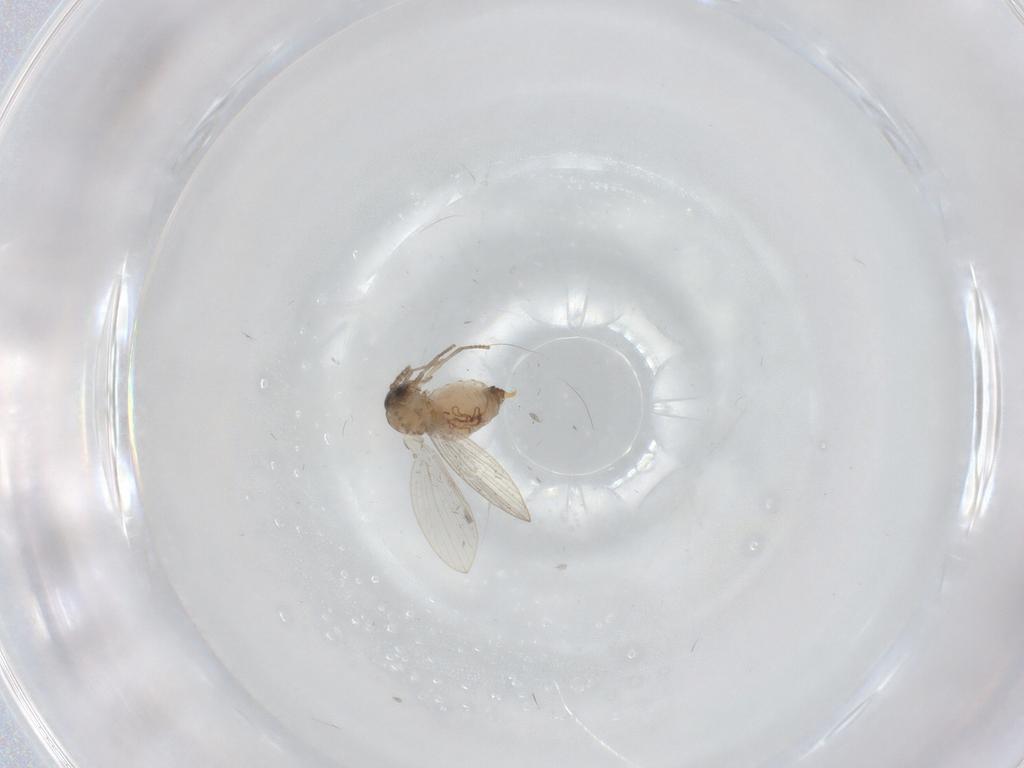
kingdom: Animalia
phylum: Arthropoda
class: Insecta
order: Diptera
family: Psychodidae
